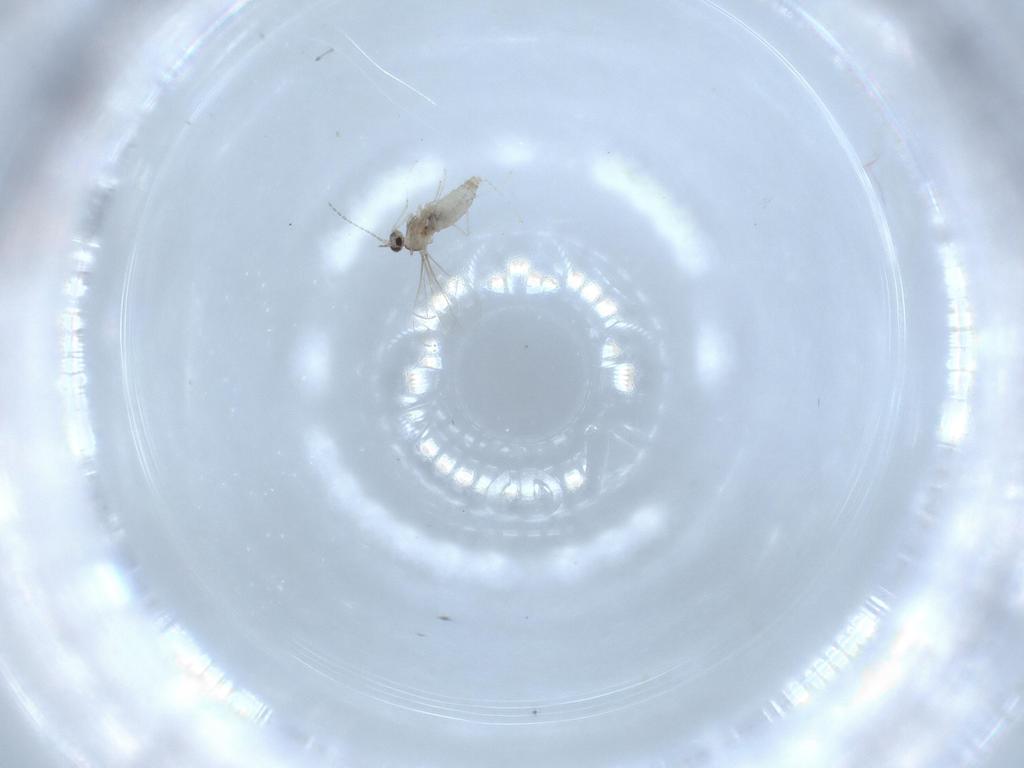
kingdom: Animalia
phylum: Arthropoda
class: Insecta
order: Diptera
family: Cecidomyiidae
